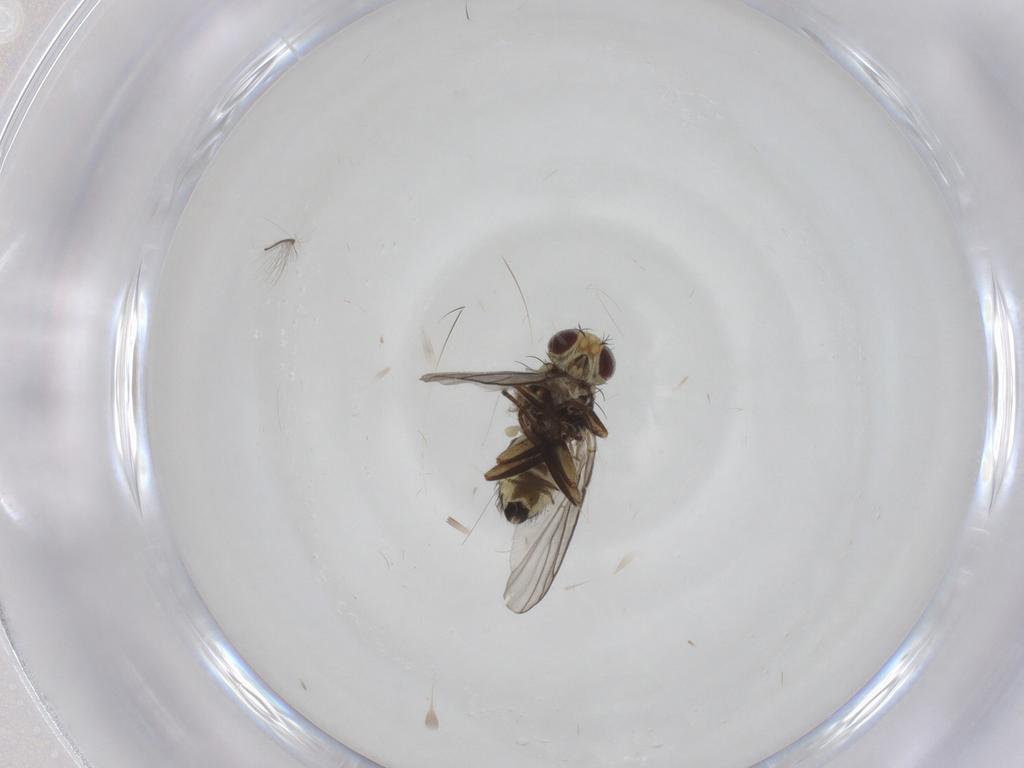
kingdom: Animalia
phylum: Arthropoda
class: Insecta
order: Diptera
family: Agromyzidae
